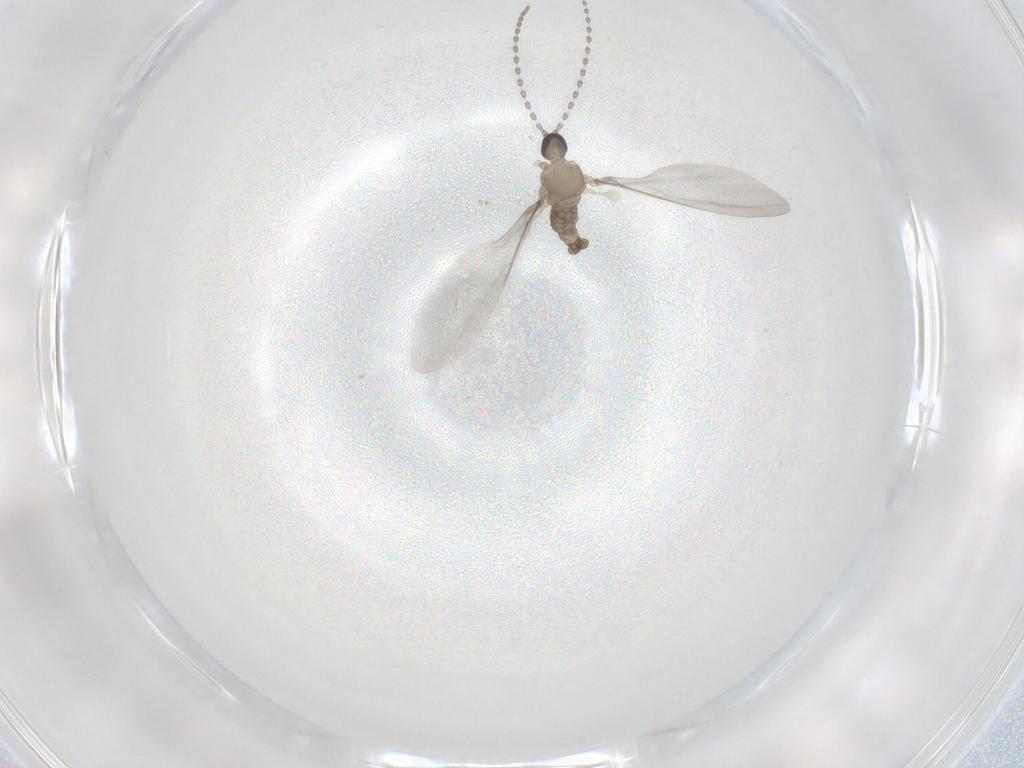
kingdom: Animalia
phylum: Arthropoda
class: Insecta
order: Diptera
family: Cecidomyiidae
